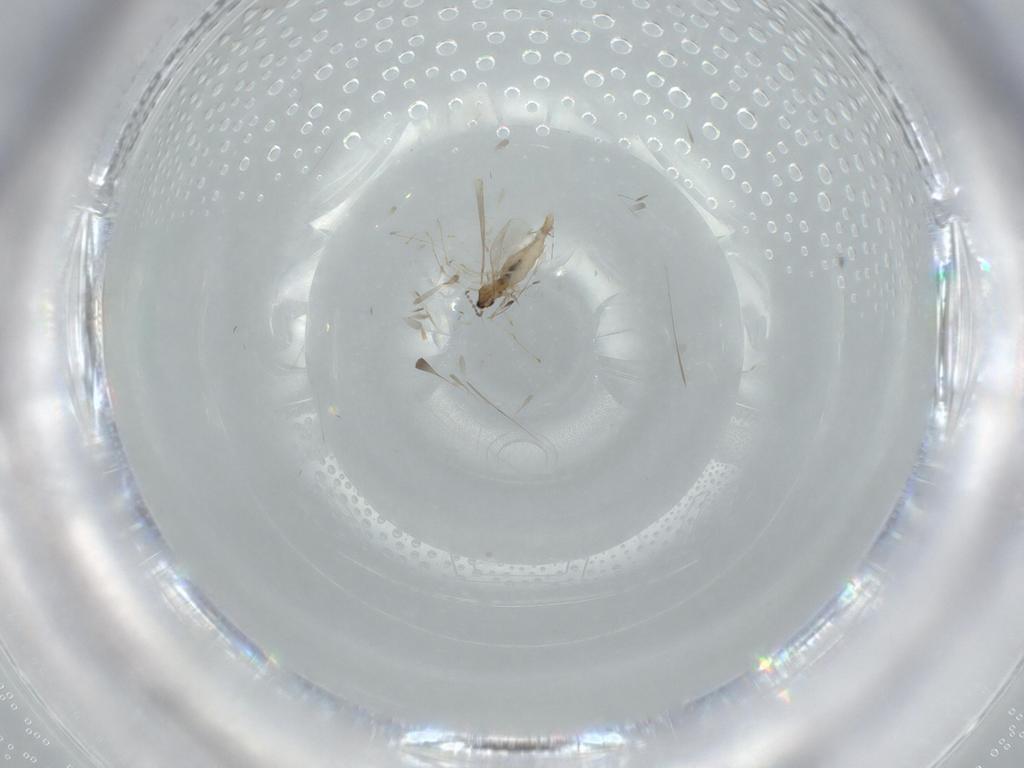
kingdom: Animalia
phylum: Arthropoda
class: Insecta
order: Diptera
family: Cecidomyiidae
